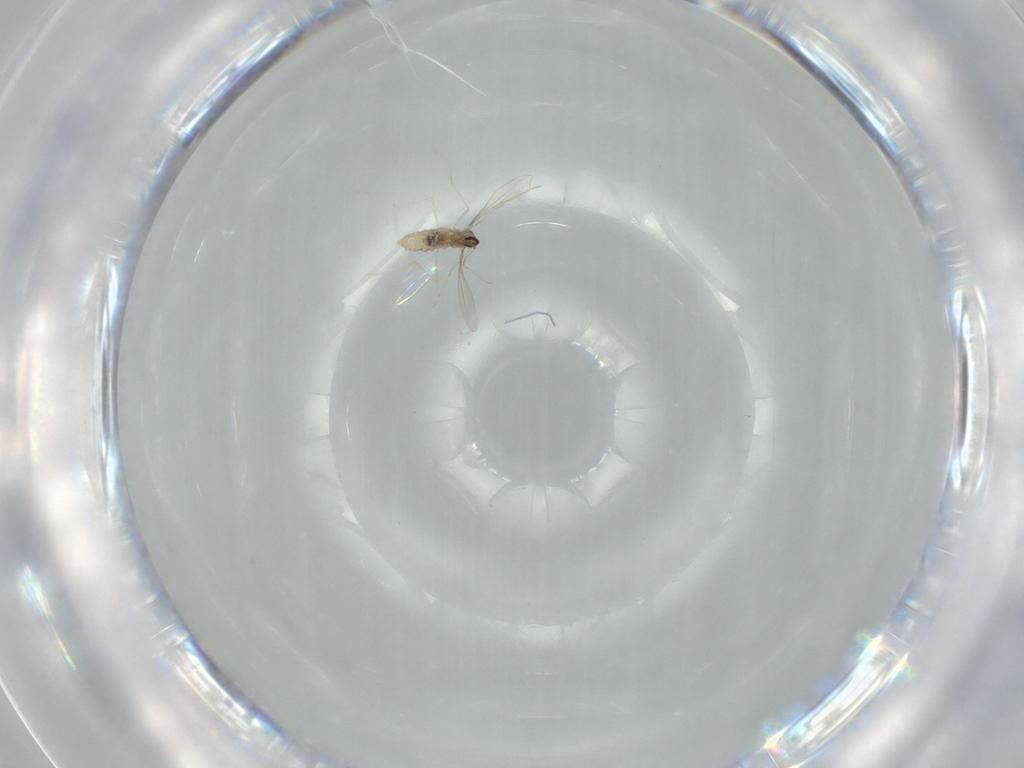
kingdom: Animalia
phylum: Arthropoda
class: Insecta
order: Diptera
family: Cecidomyiidae
